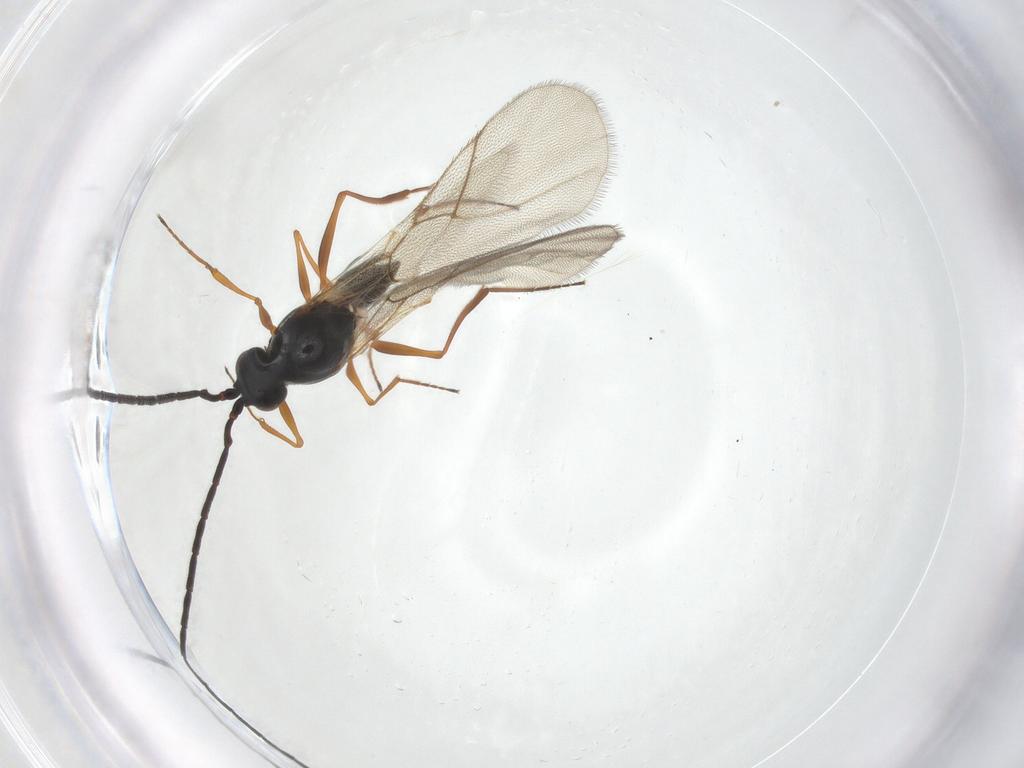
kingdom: Animalia
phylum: Arthropoda
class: Insecta
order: Hymenoptera
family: Figitidae
